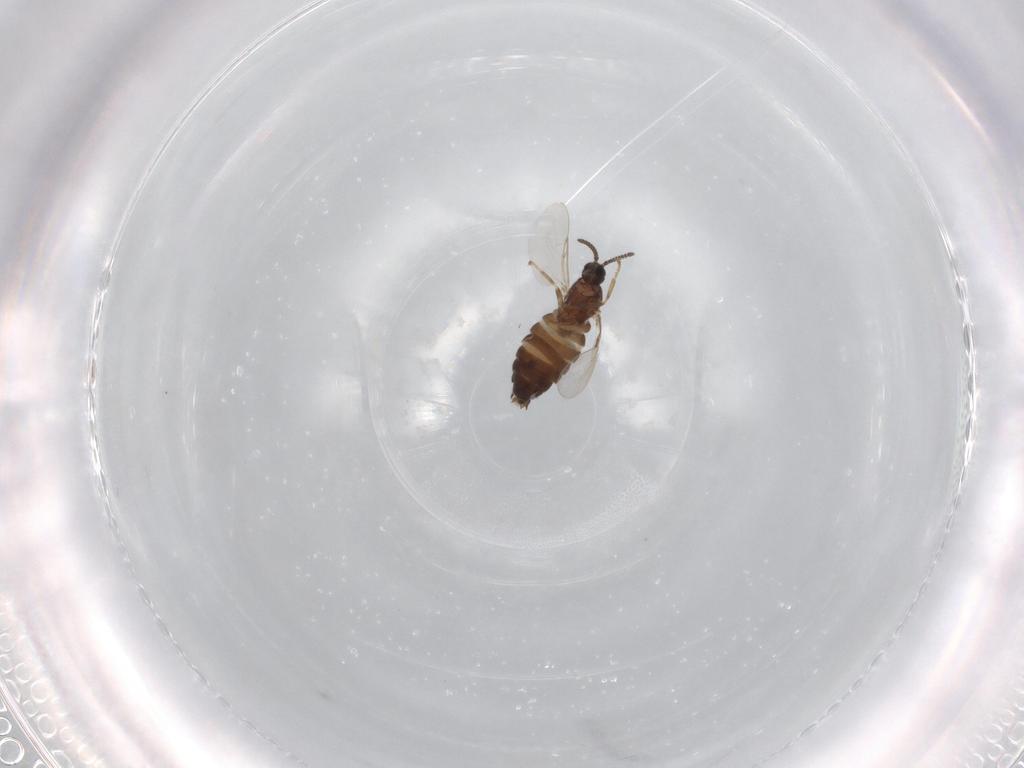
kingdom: Animalia
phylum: Arthropoda
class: Insecta
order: Diptera
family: Scatopsidae
